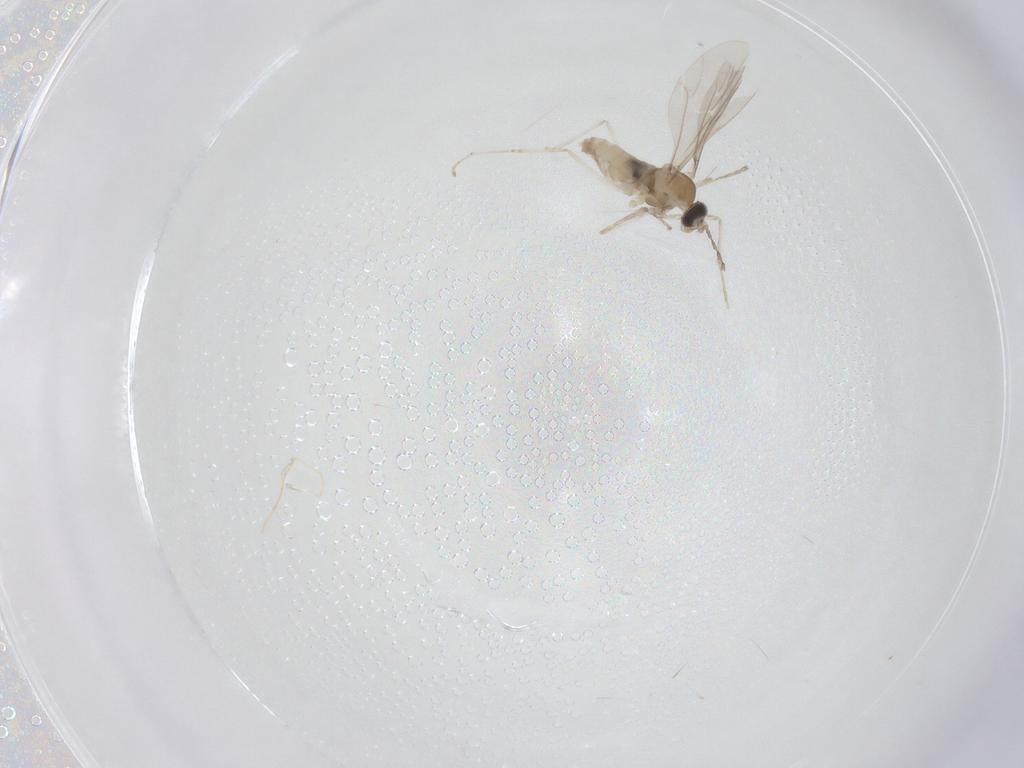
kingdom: Animalia
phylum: Arthropoda
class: Insecta
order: Diptera
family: Cecidomyiidae
